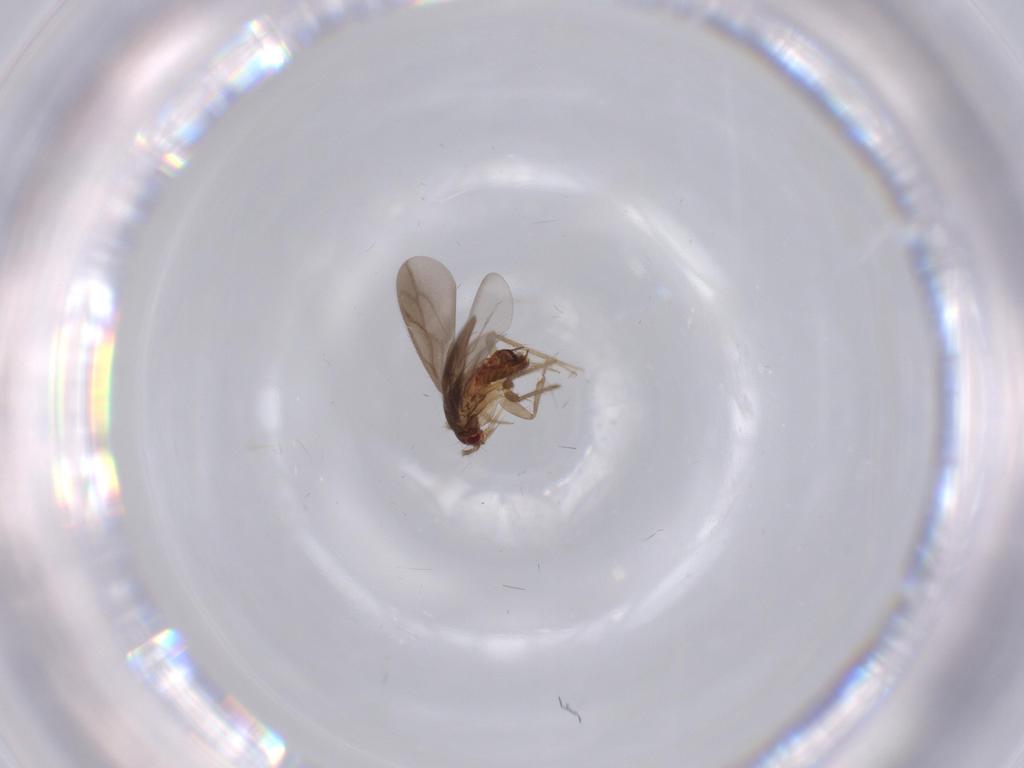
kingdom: Animalia
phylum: Arthropoda
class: Insecta
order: Hemiptera
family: Ceratocombidae
